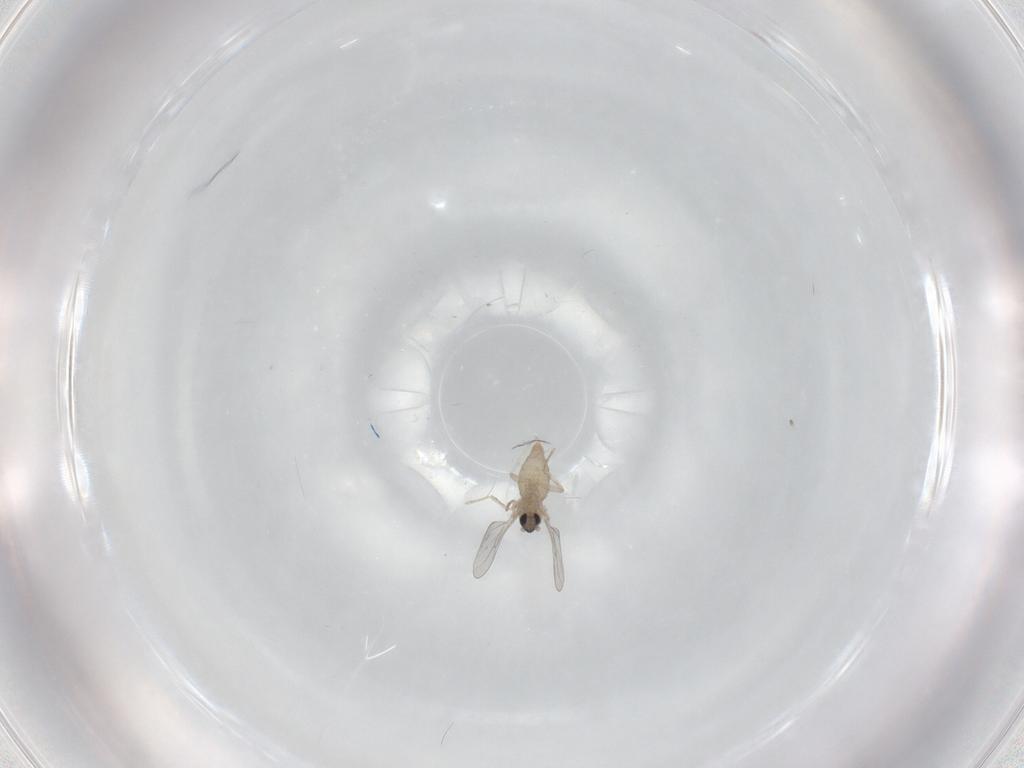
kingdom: Animalia
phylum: Arthropoda
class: Insecta
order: Diptera
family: Cecidomyiidae
